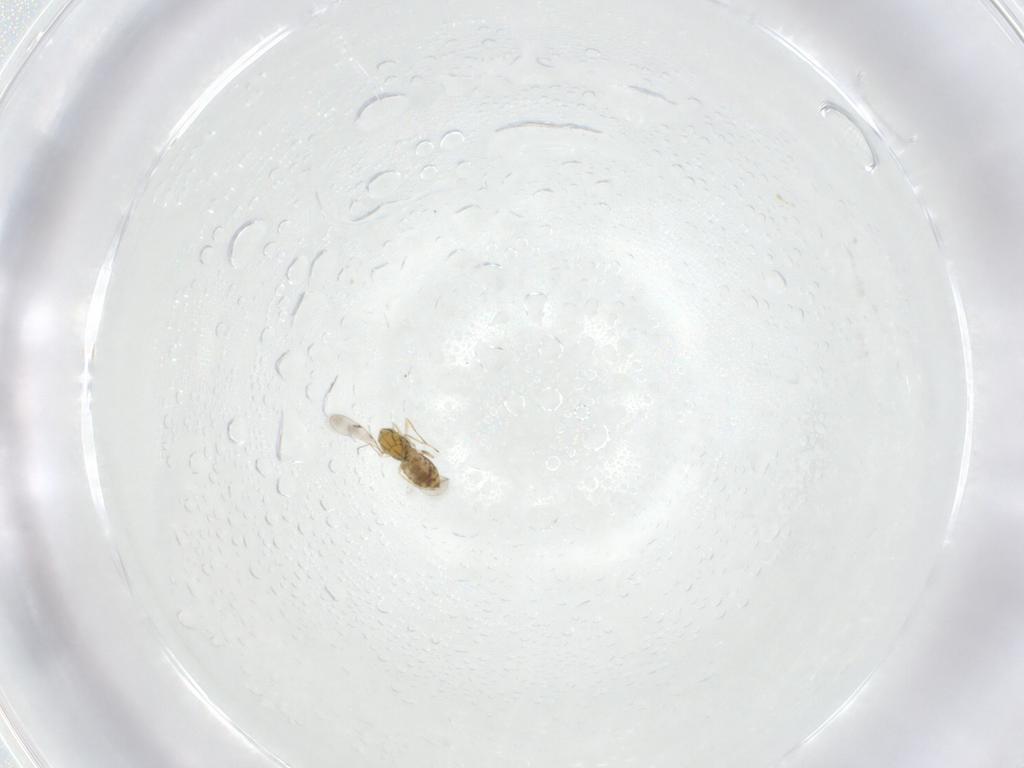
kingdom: Animalia
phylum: Arthropoda
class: Insecta
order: Hymenoptera
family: Eulophidae
